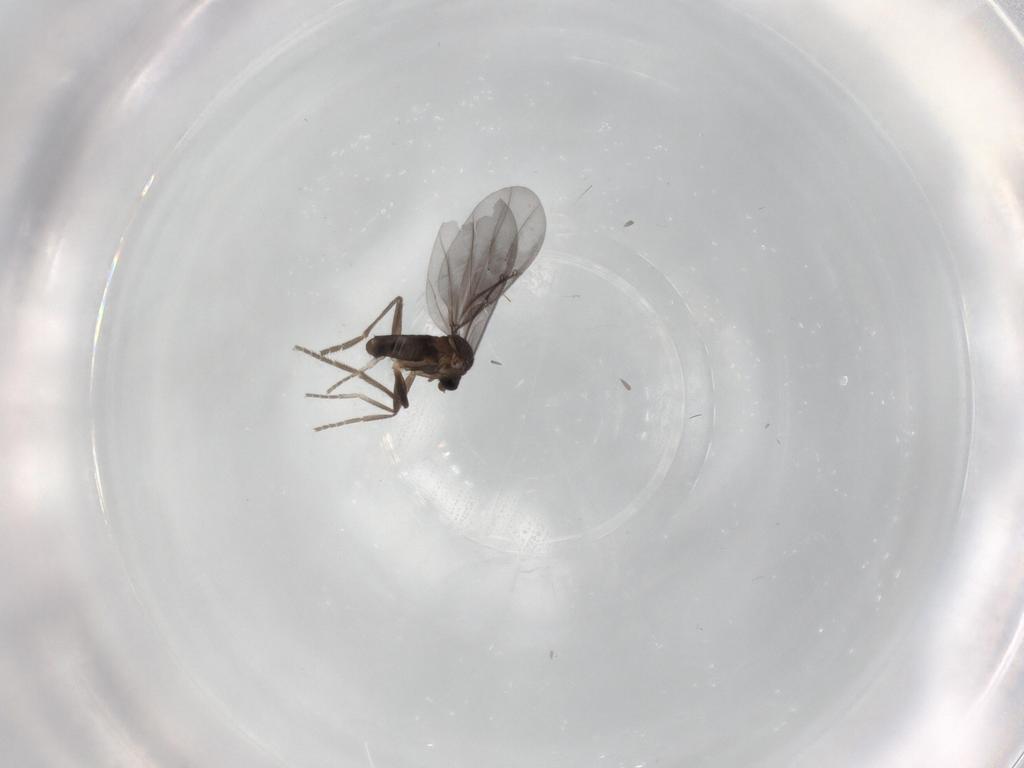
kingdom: Animalia
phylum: Arthropoda
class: Insecta
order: Diptera
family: Phoridae
